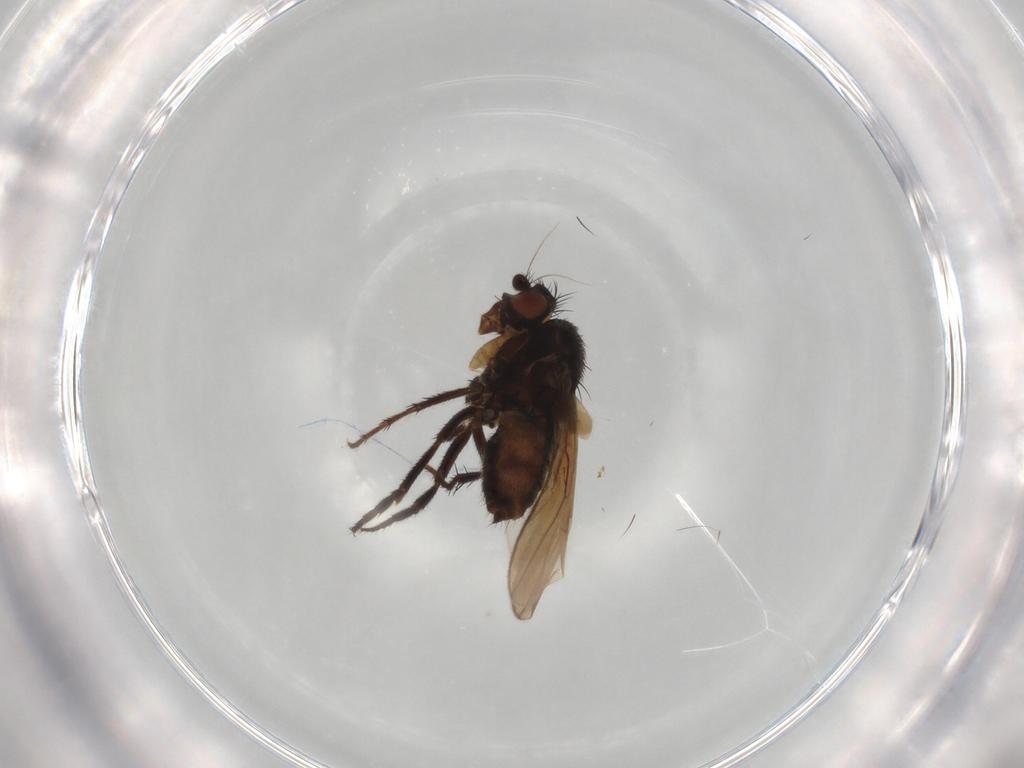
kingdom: Animalia
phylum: Arthropoda
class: Insecta
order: Diptera
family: Sphaeroceridae
